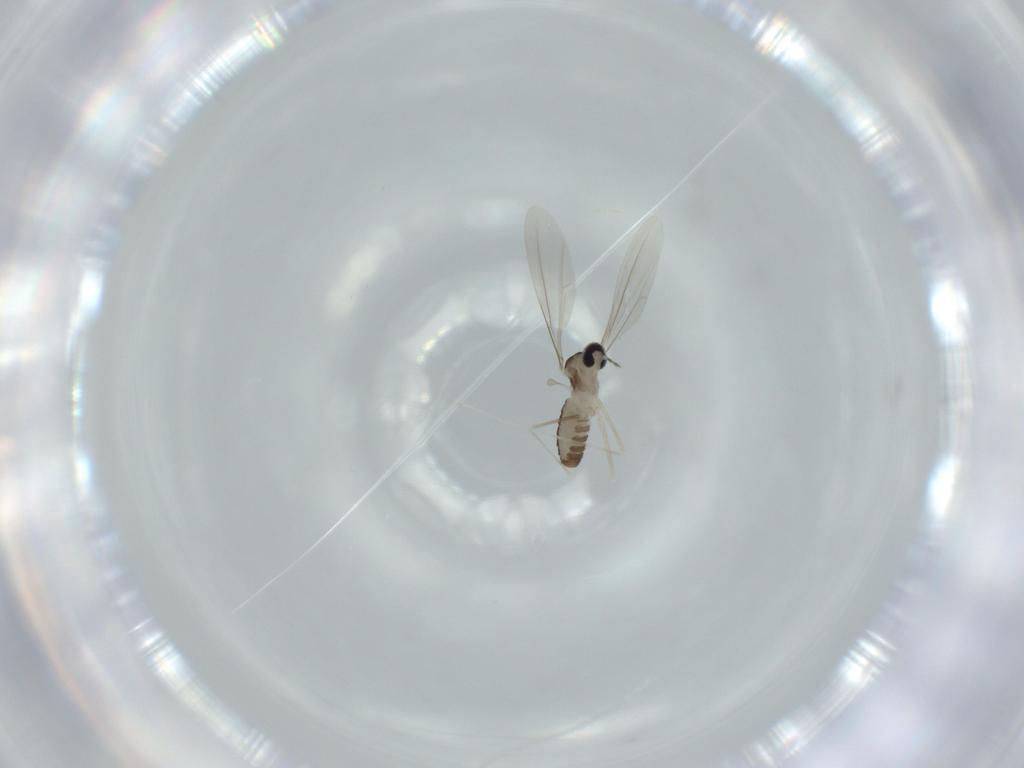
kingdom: Animalia
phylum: Arthropoda
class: Insecta
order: Diptera
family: Cecidomyiidae
